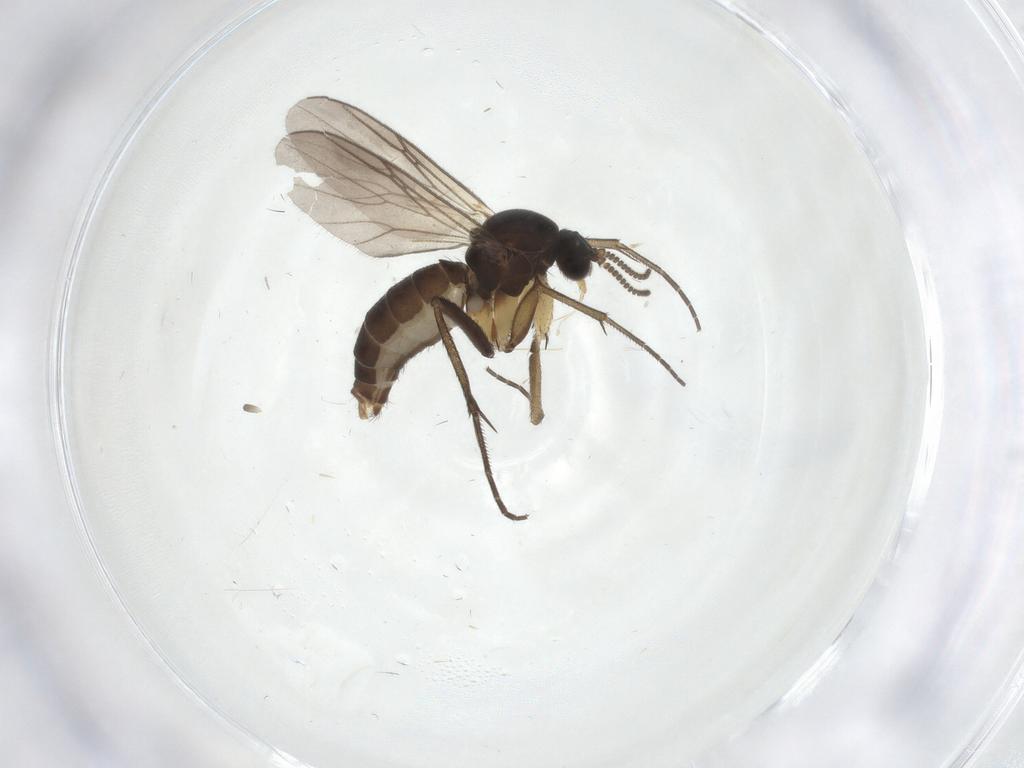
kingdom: Animalia
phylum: Arthropoda
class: Insecta
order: Diptera
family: Mycetophilidae
